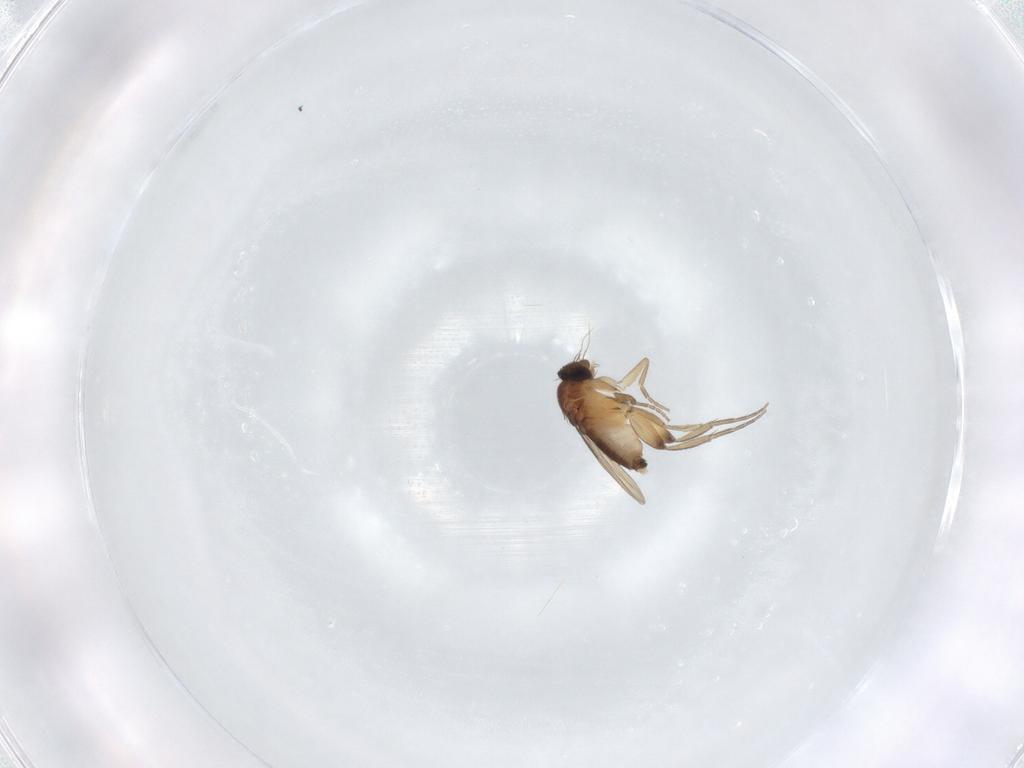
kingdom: Animalia
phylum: Arthropoda
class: Insecta
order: Diptera
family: Phoridae
